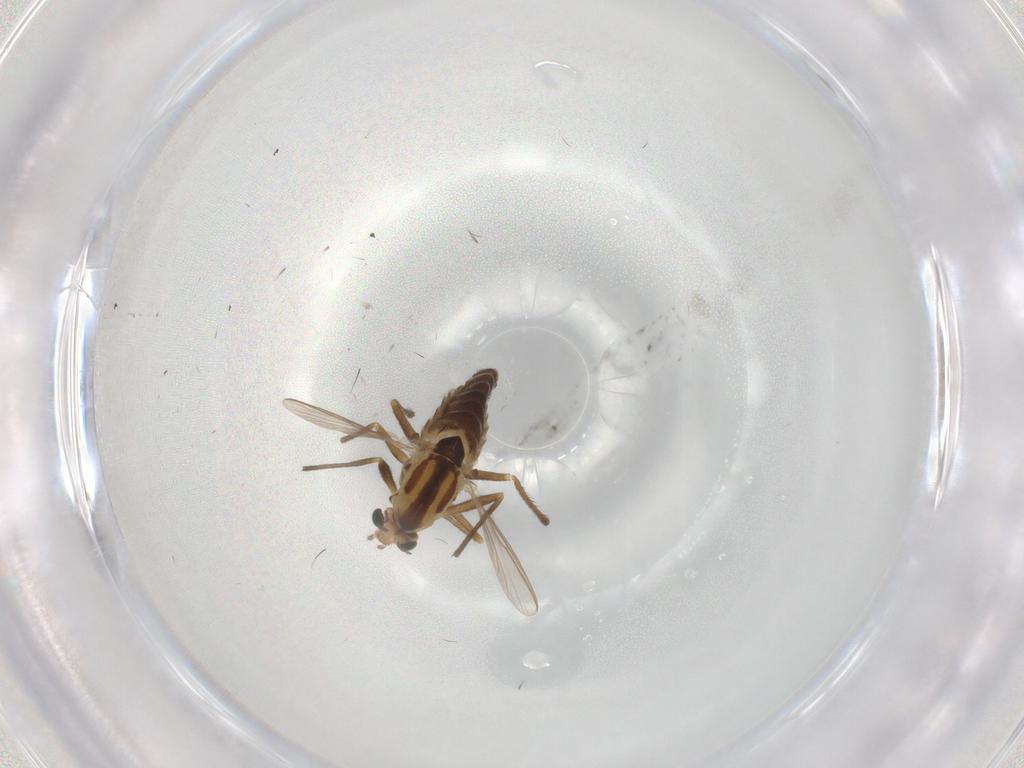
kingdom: Animalia
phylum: Arthropoda
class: Insecta
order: Diptera
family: Chironomidae
